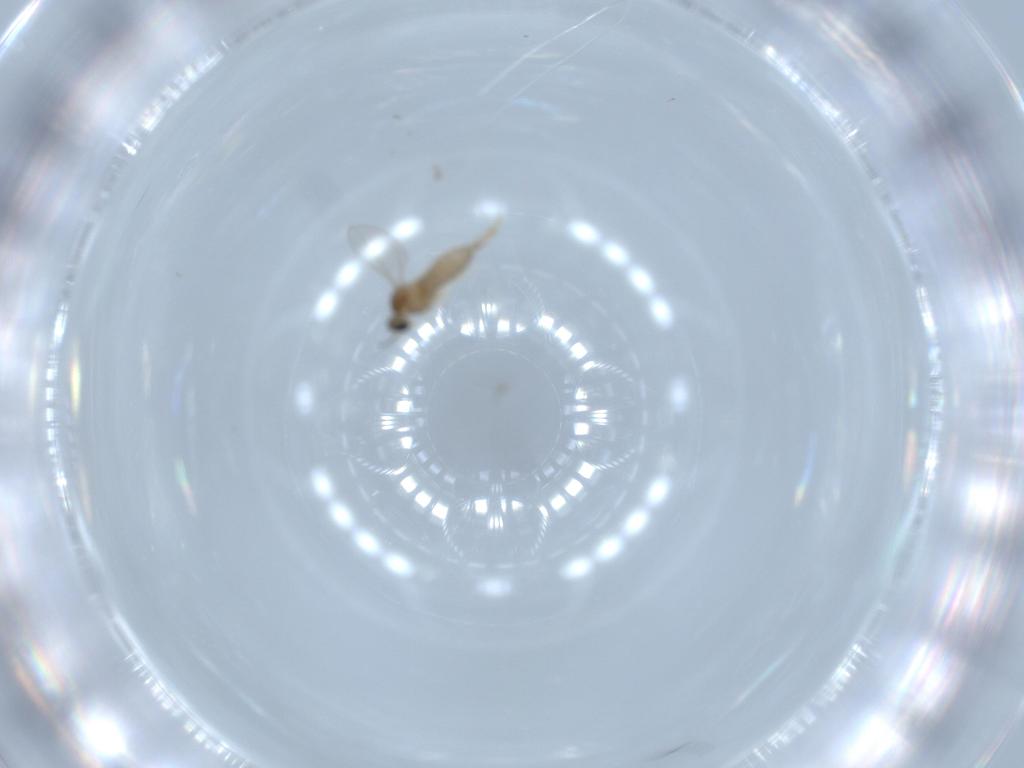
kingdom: Animalia
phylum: Arthropoda
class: Insecta
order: Diptera
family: Chloropidae
